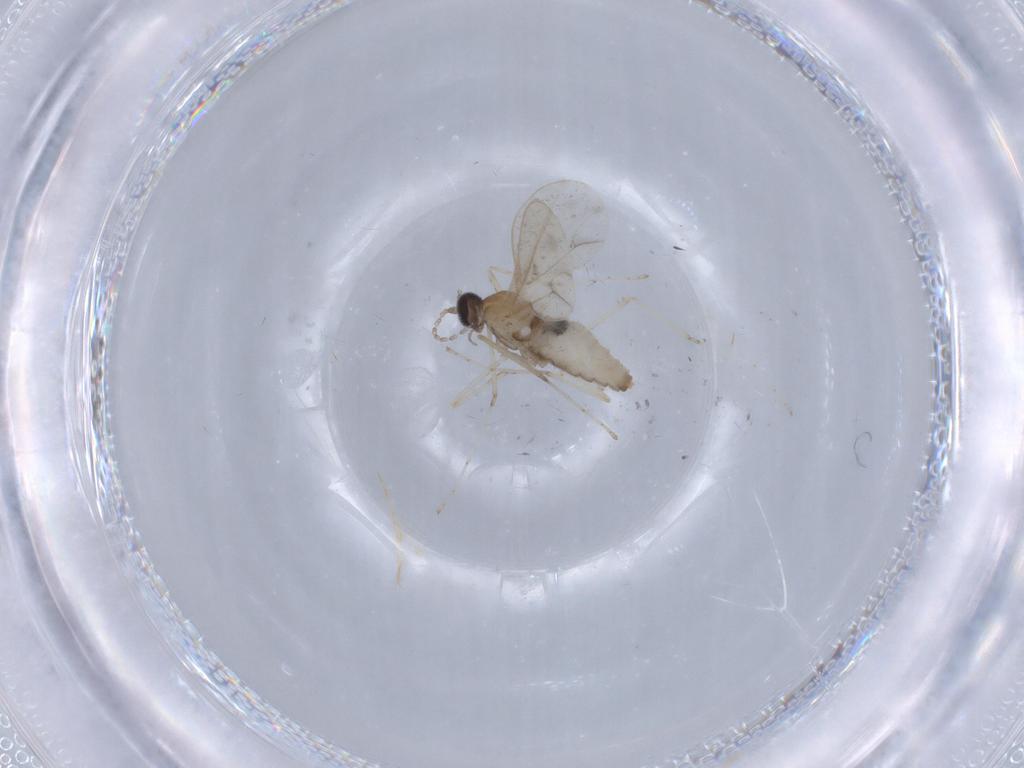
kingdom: Animalia
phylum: Arthropoda
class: Insecta
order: Diptera
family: Cecidomyiidae
